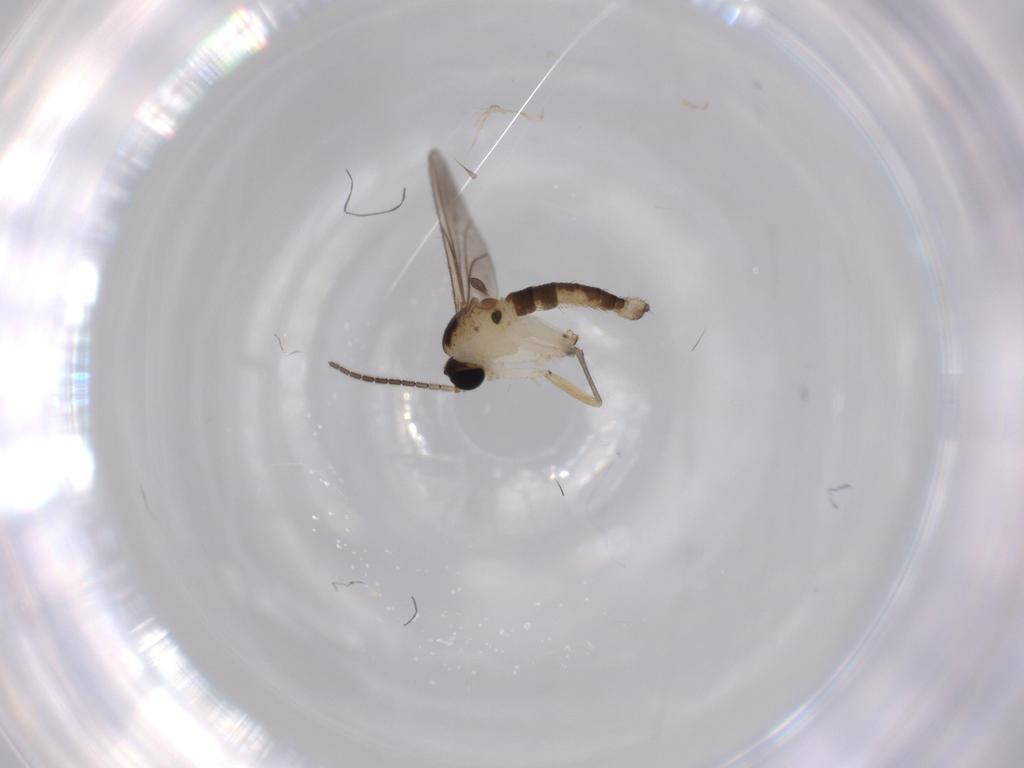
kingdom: Animalia
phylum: Arthropoda
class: Insecta
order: Diptera
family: Sciaridae
